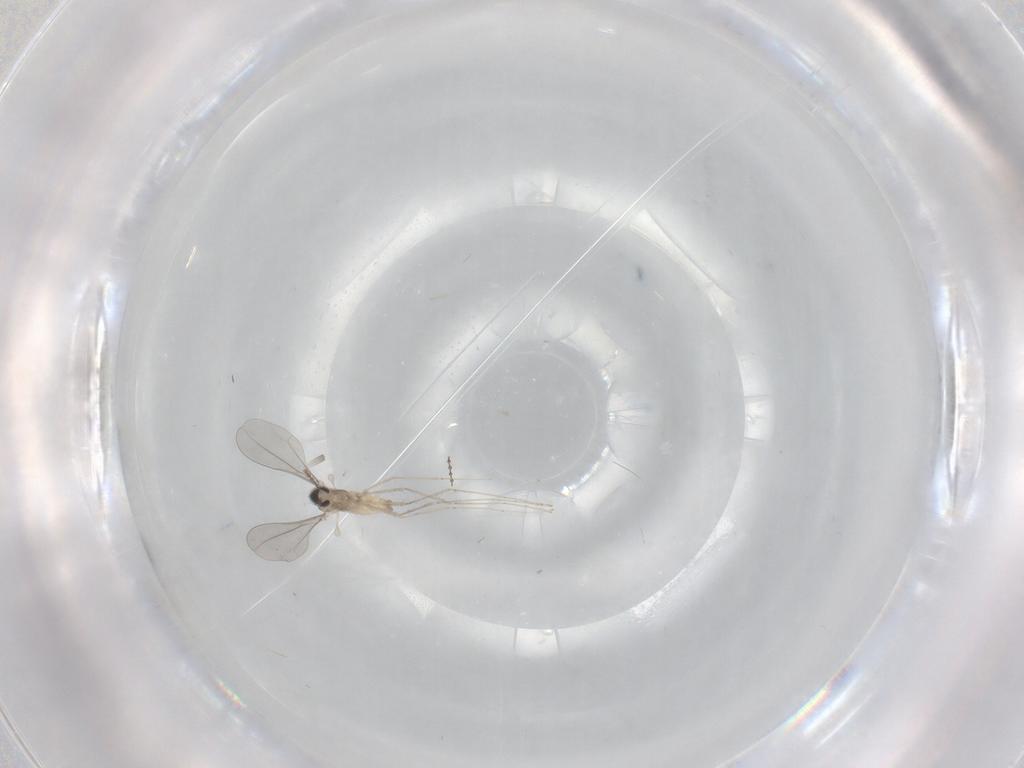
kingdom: Animalia
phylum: Arthropoda
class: Insecta
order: Diptera
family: Cecidomyiidae
